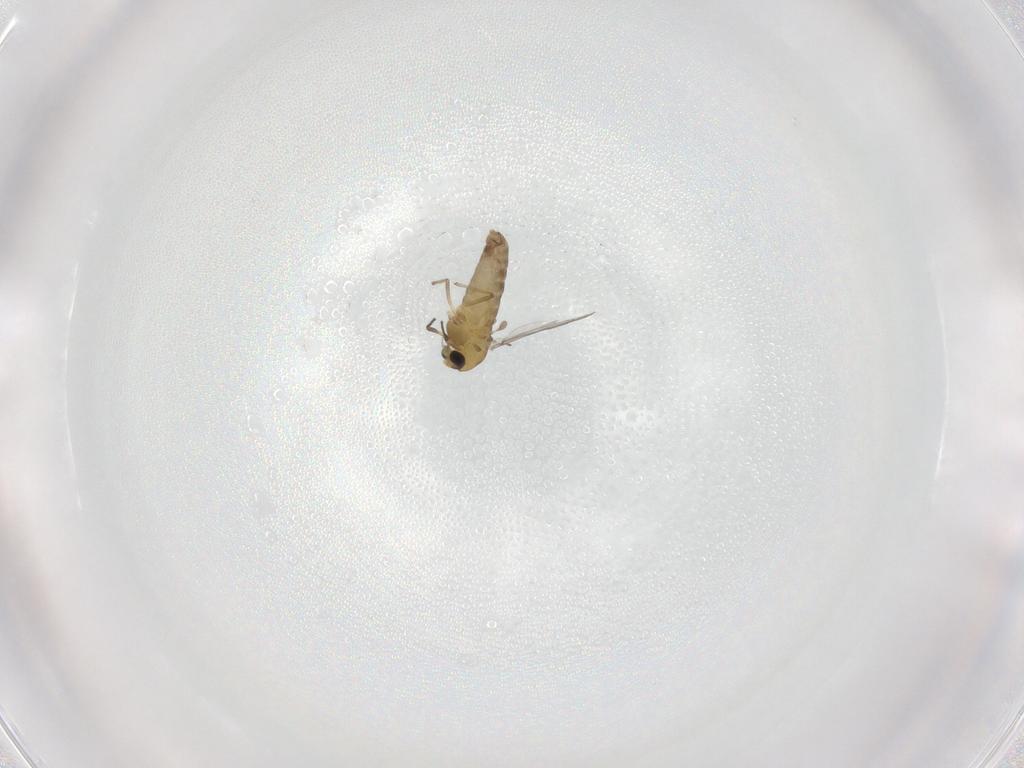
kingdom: Animalia
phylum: Arthropoda
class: Insecta
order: Diptera
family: Chironomidae
